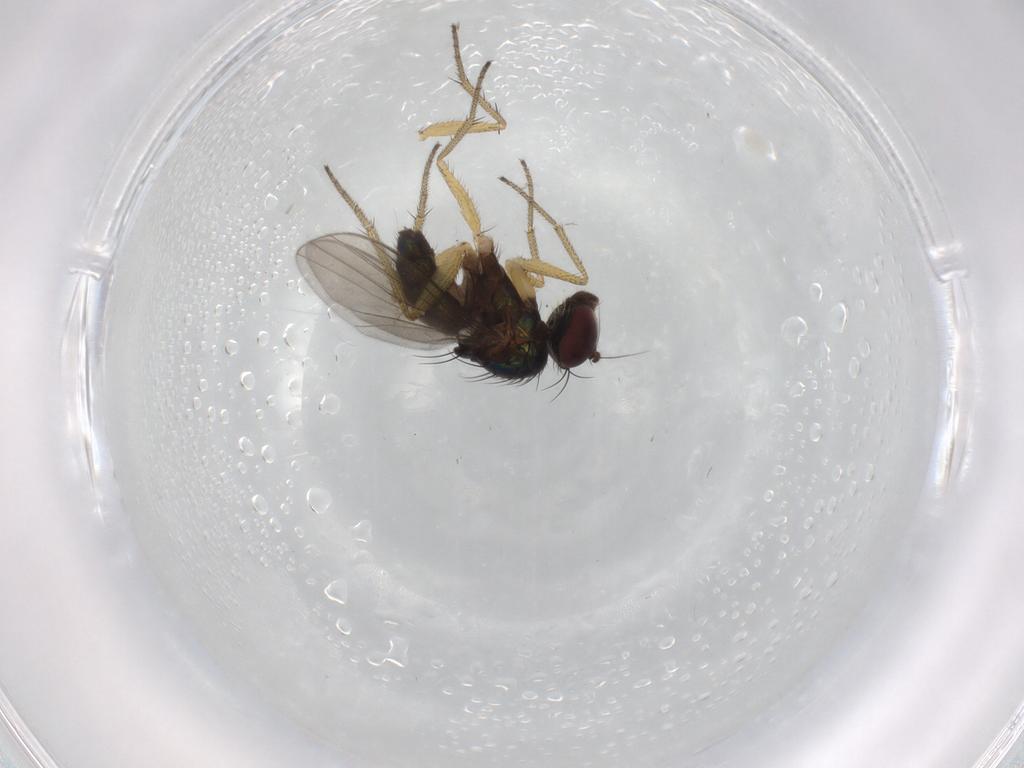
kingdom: Animalia
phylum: Arthropoda
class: Insecta
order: Diptera
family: Dolichopodidae
